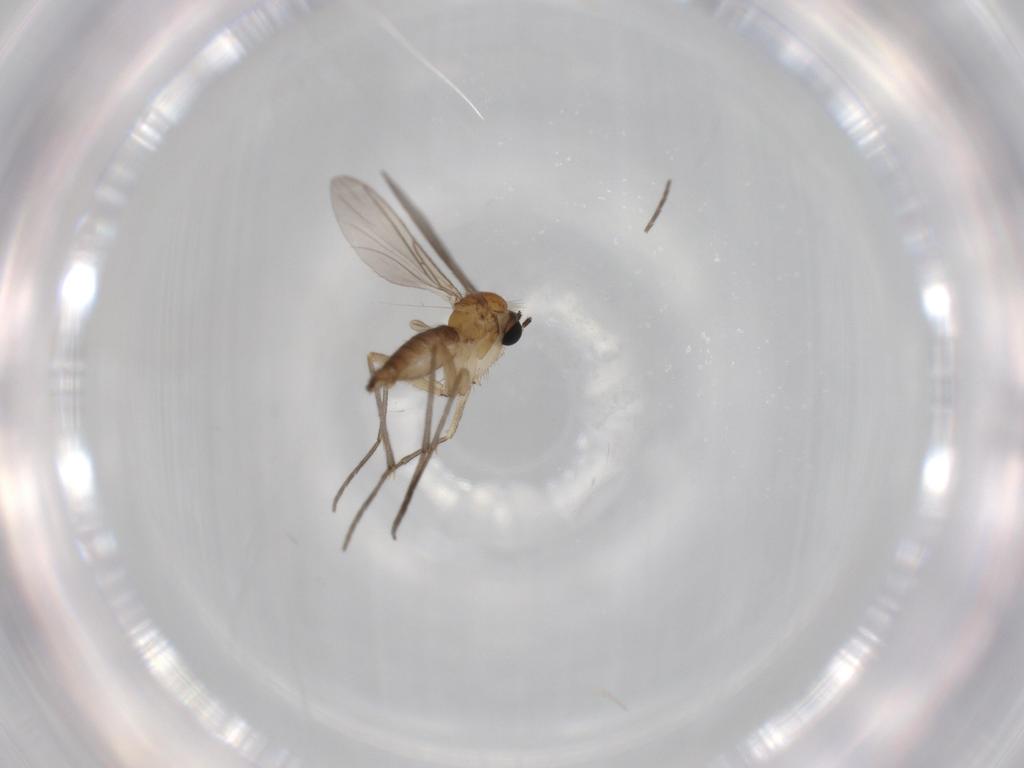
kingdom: Animalia
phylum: Arthropoda
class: Insecta
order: Diptera
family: Sciaridae
